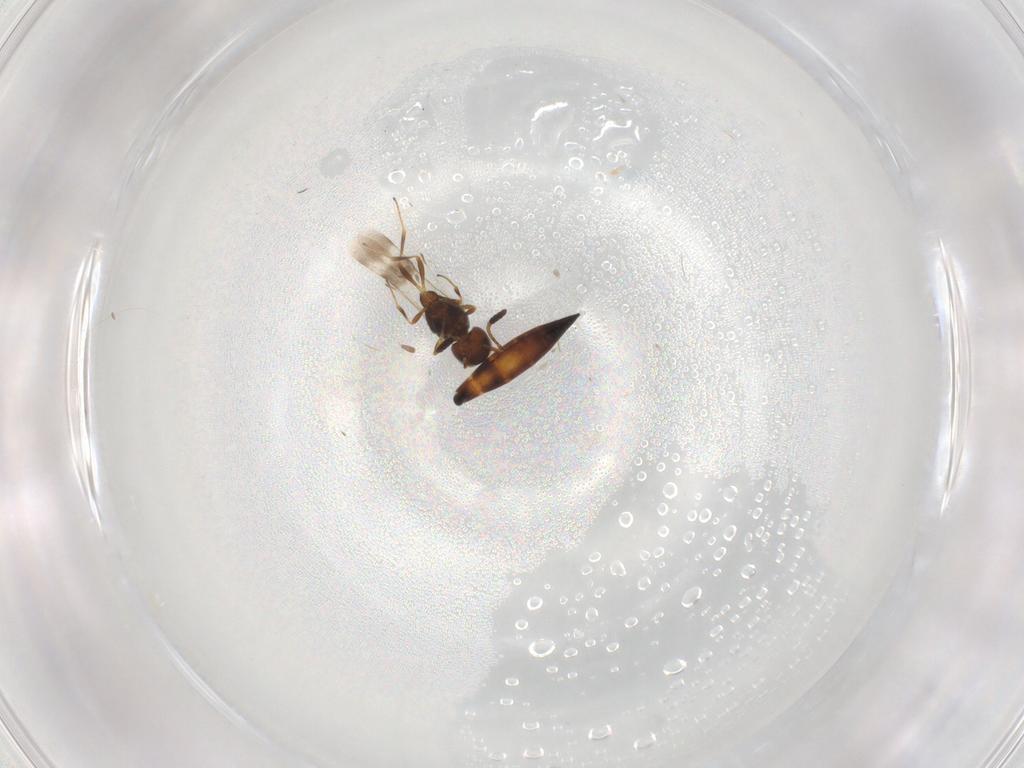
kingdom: Animalia
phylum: Arthropoda
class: Insecta
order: Hymenoptera
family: Scelionidae
